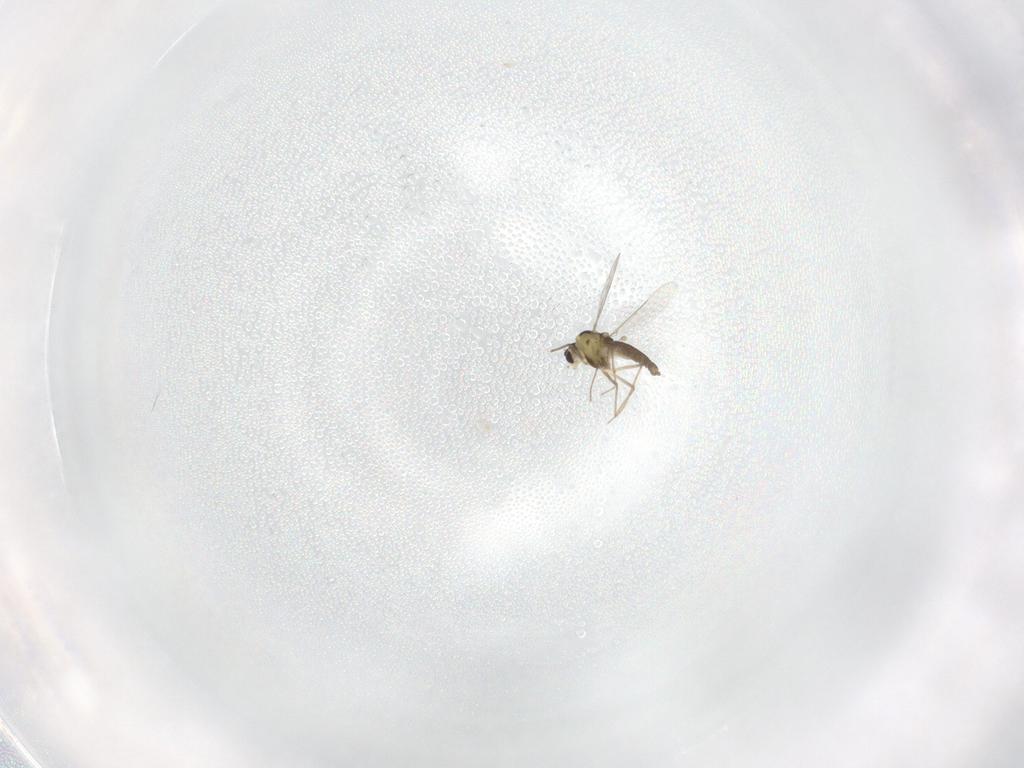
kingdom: Animalia
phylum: Arthropoda
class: Insecta
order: Diptera
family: Chironomidae
